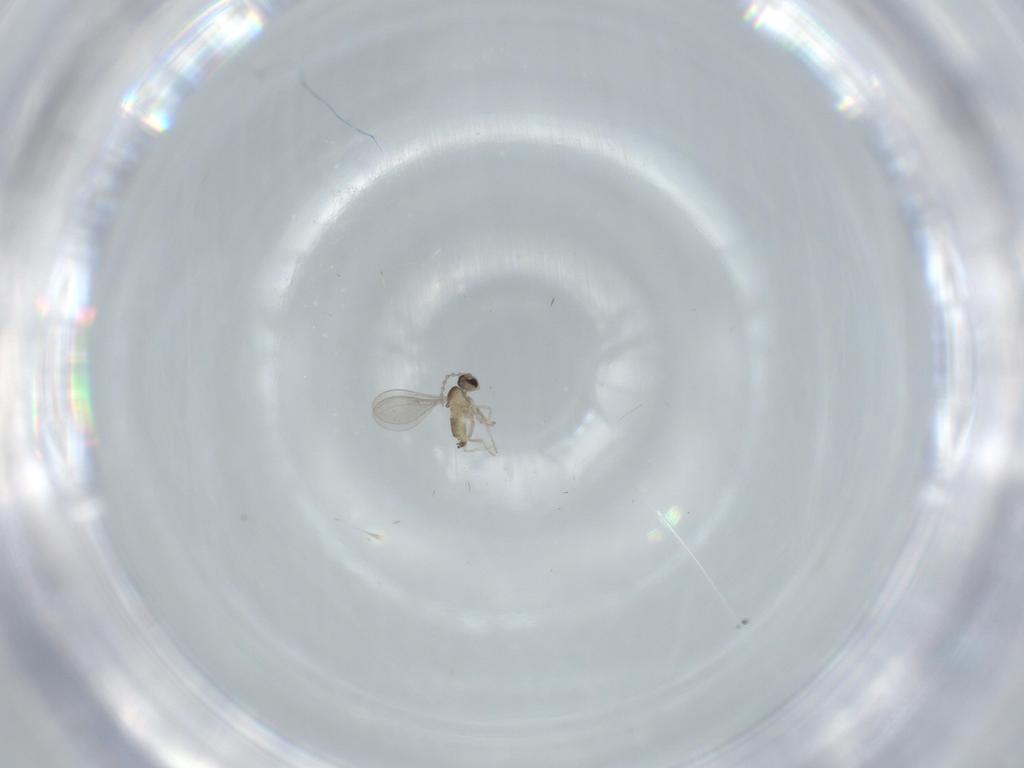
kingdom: Animalia
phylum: Arthropoda
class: Insecta
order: Diptera
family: Cecidomyiidae
